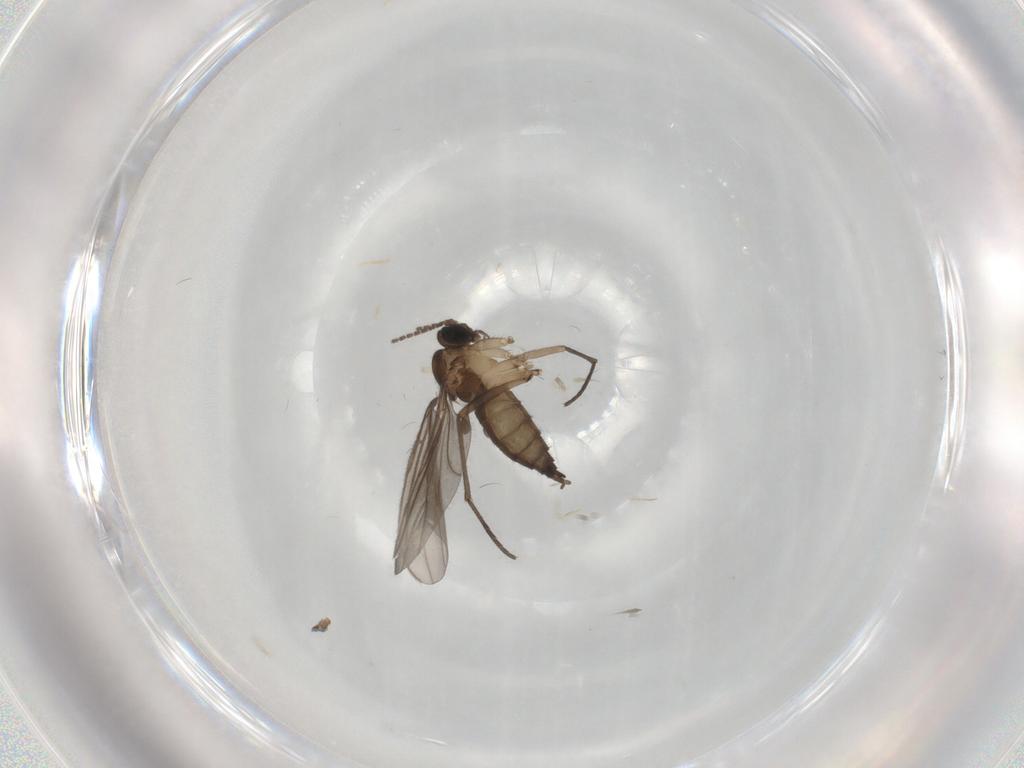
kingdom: Animalia
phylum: Arthropoda
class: Insecta
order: Diptera
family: Sciaridae
